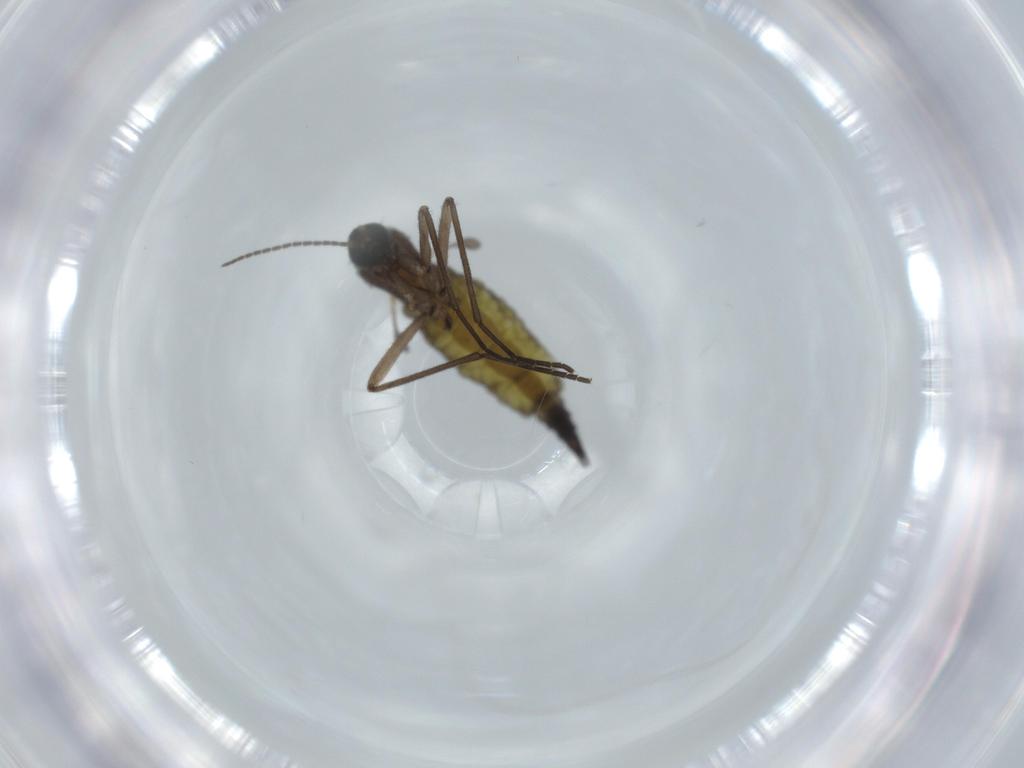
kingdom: Animalia
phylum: Arthropoda
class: Insecta
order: Diptera
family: Sciaridae
